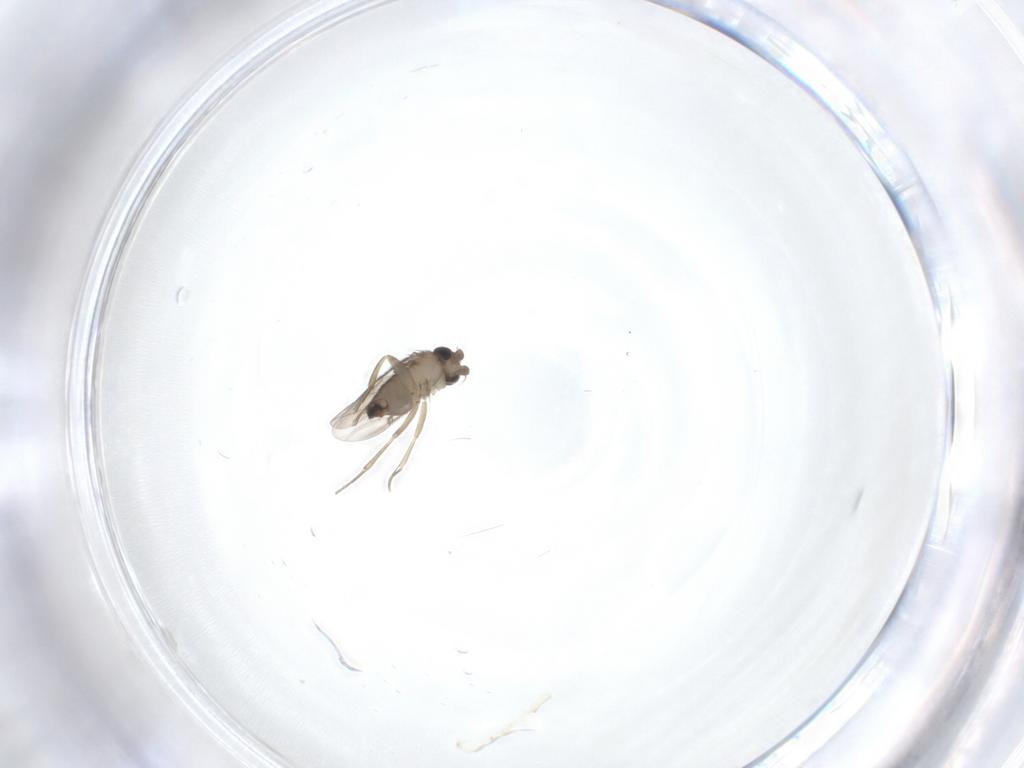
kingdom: Animalia
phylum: Arthropoda
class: Insecta
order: Diptera
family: Phoridae
